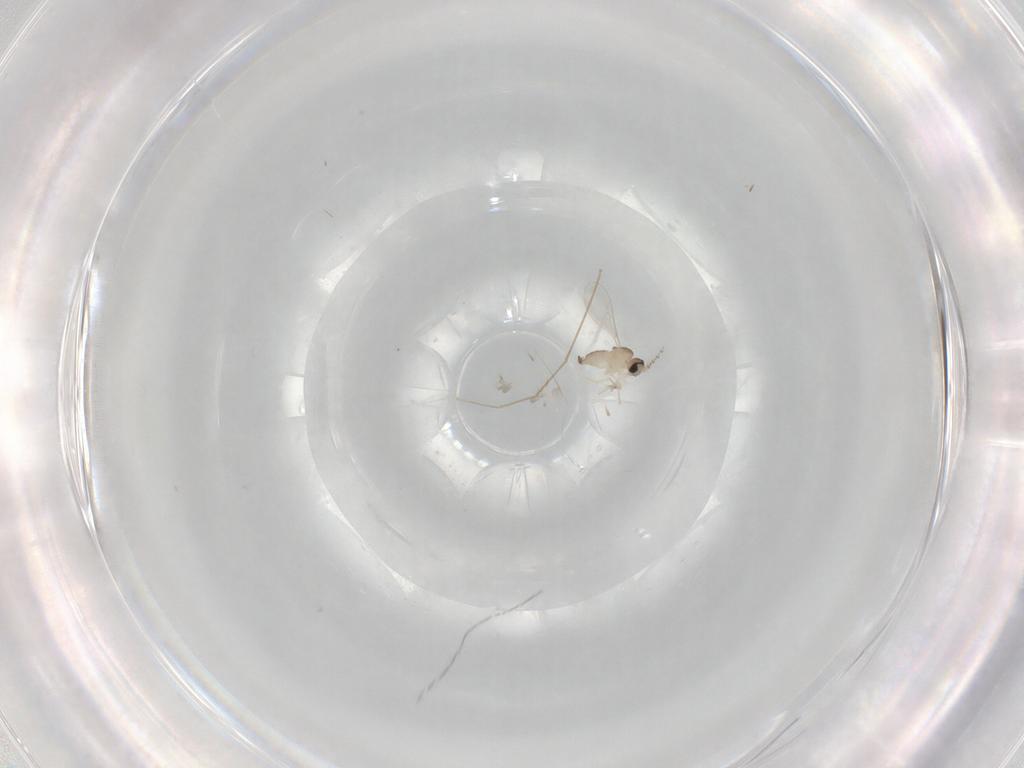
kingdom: Animalia
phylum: Arthropoda
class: Insecta
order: Diptera
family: Cecidomyiidae
